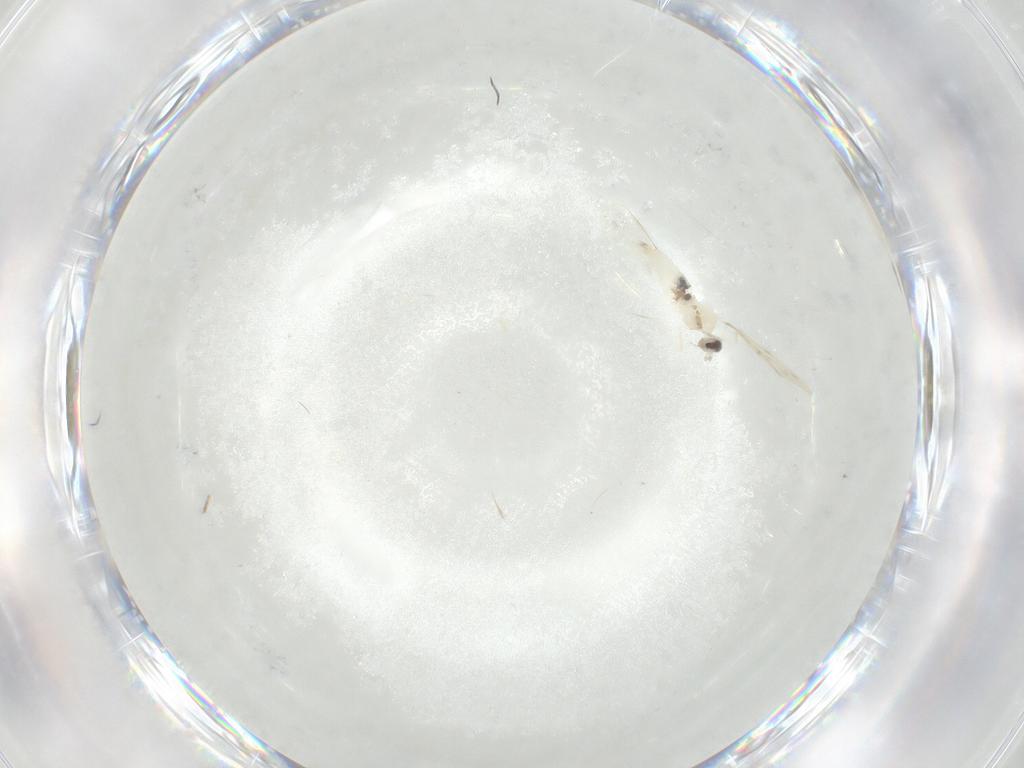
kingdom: Animalia
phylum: Arthropoda
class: Insecta
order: Diptera
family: Cecidomyiidae
